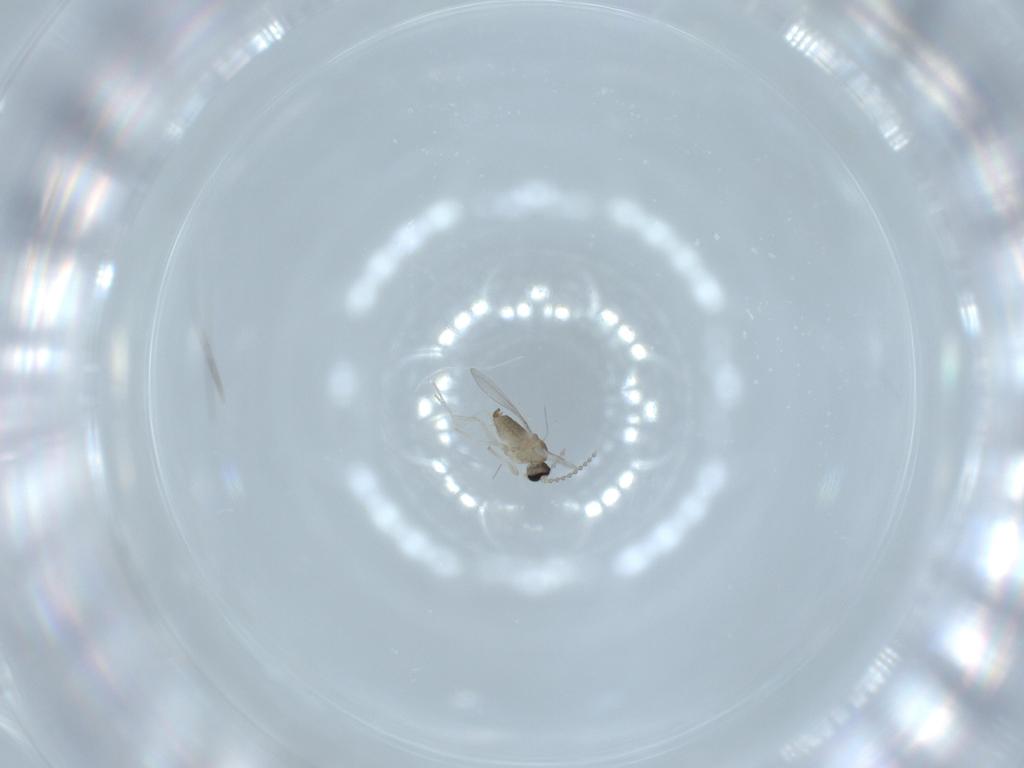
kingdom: Animalia
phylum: Arthropoda
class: Insecta
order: Diptera
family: Cecidomyiidae
